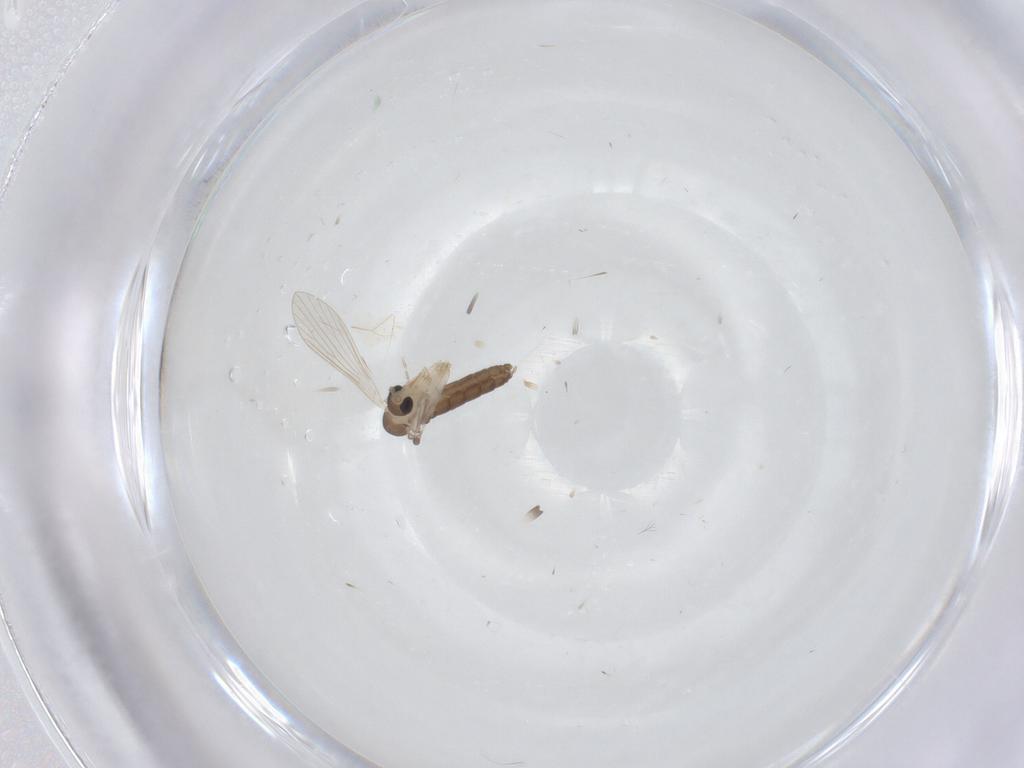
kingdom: Animalia
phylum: Arthropoda
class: Insecta
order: Diptera
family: Psychodidae
